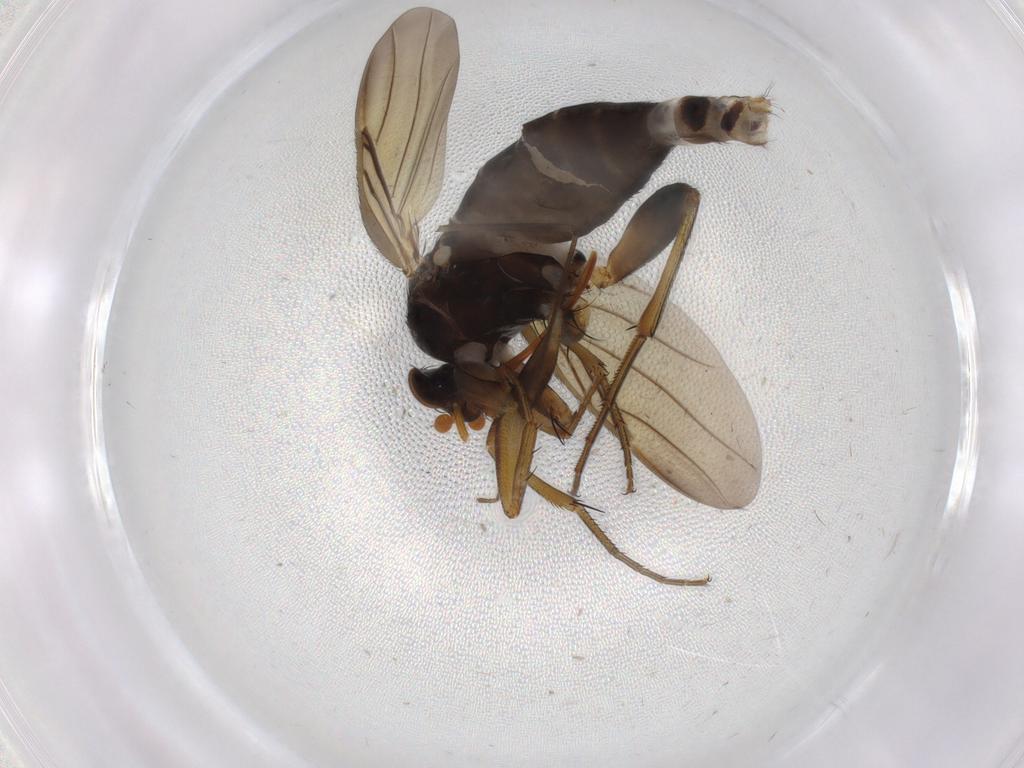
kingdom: Animalia
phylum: Arthropoda
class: Insecta
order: Diptera
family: Phoridae
